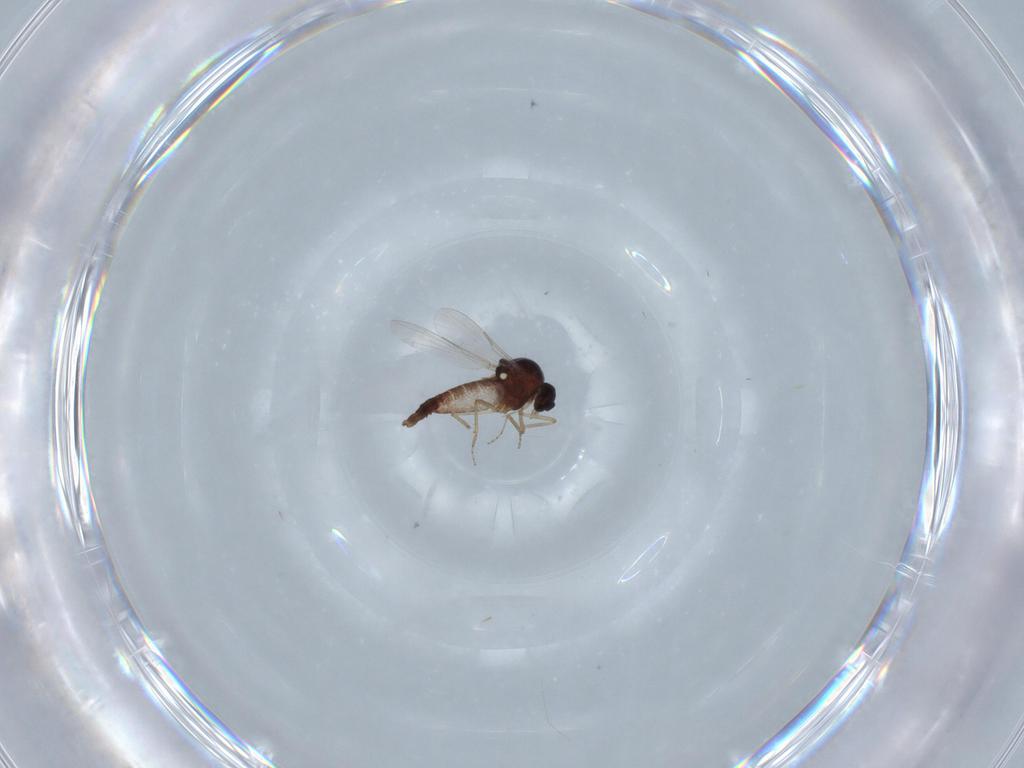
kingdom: Animalia
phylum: Arthropoda
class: Insecta
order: Diptera
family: Ceratopogonidae
